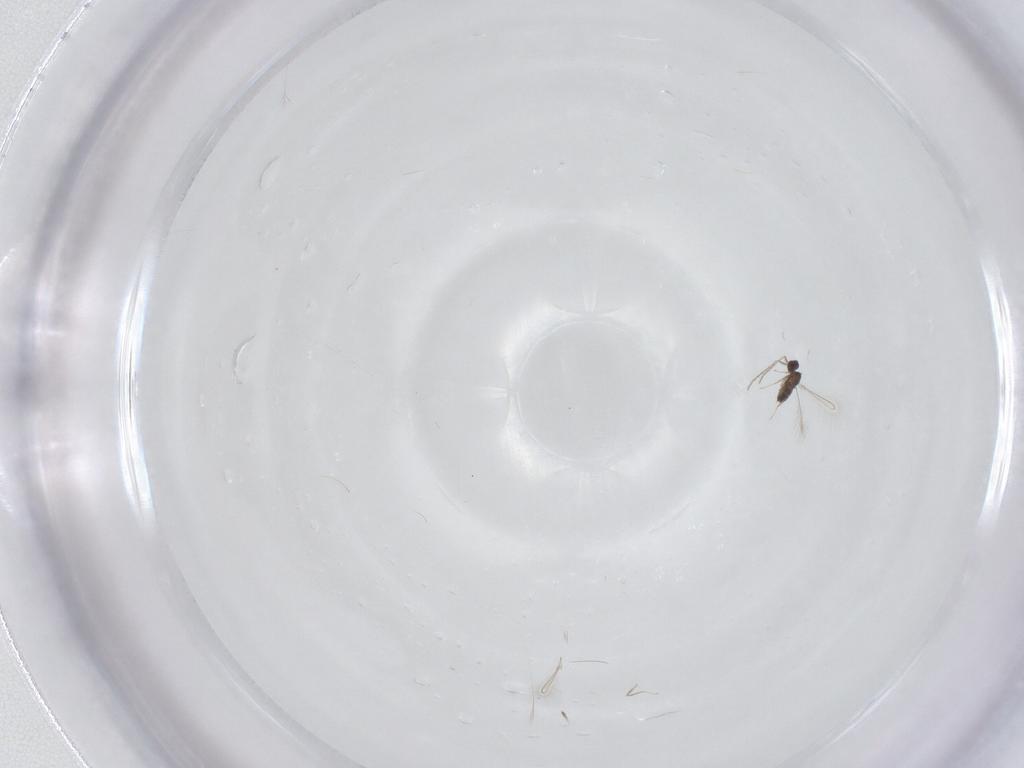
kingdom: Animalia
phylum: Arthropoda
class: Insecta
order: Hymenoptera
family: Mymaridae
